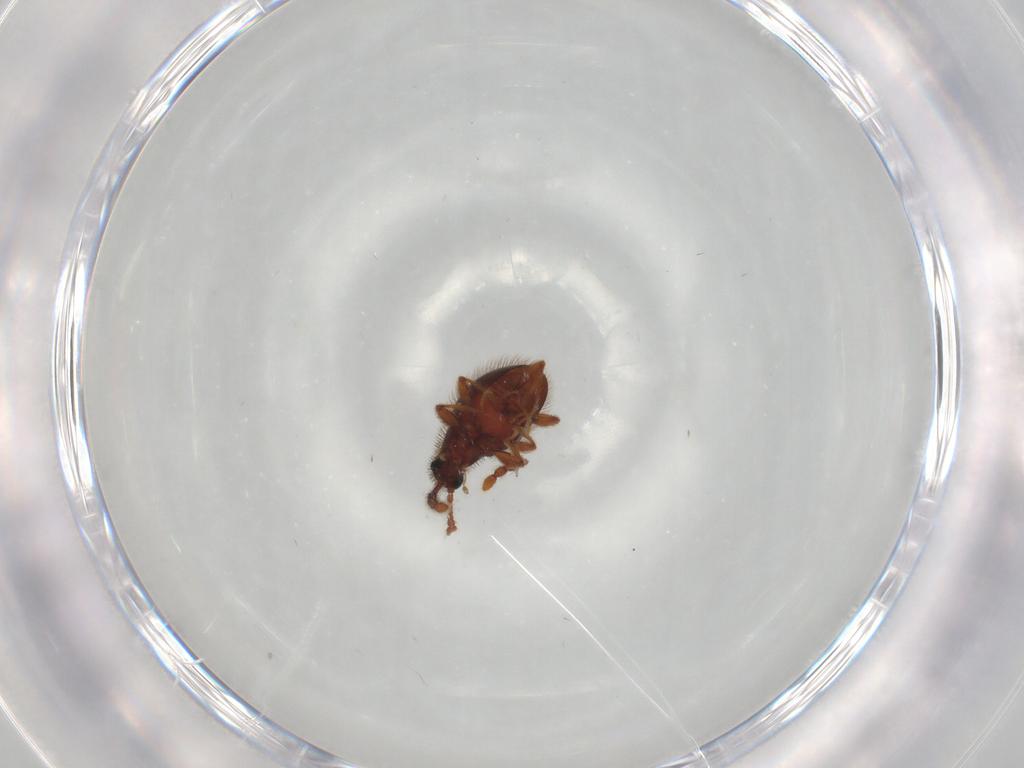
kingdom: Animalia
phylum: Arthropoda
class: Insecta
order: Coleoptera
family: Staphylinidae
